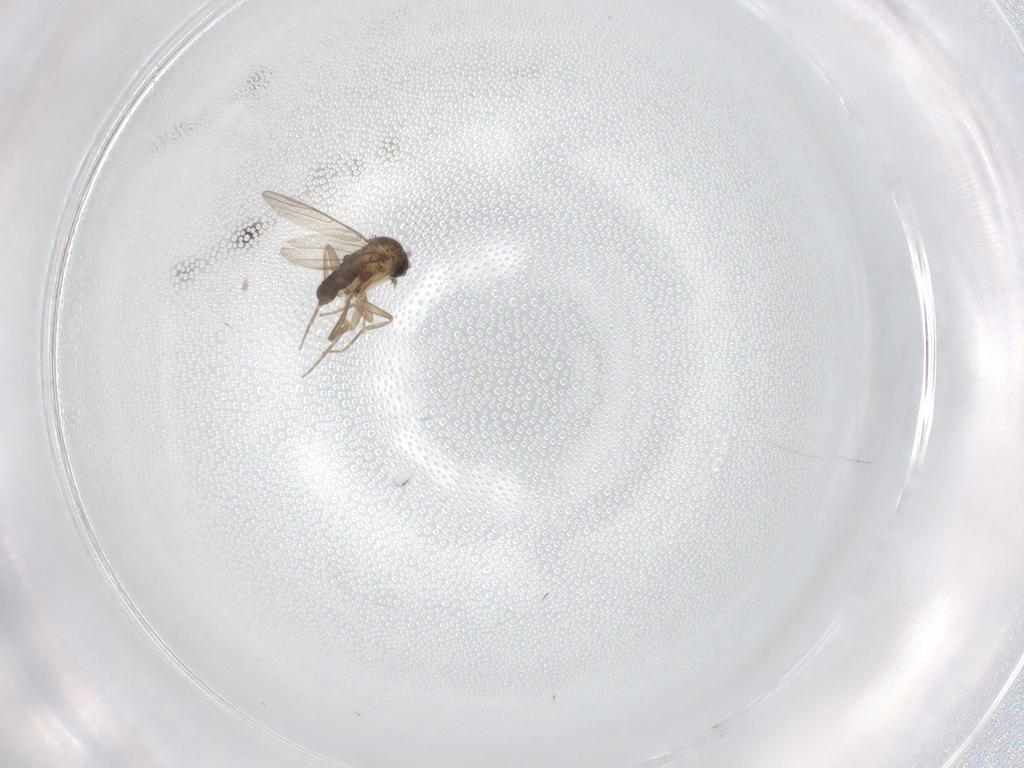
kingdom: Animalia
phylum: Arthropoda
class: Insecta
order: Diptera
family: Phoridae
